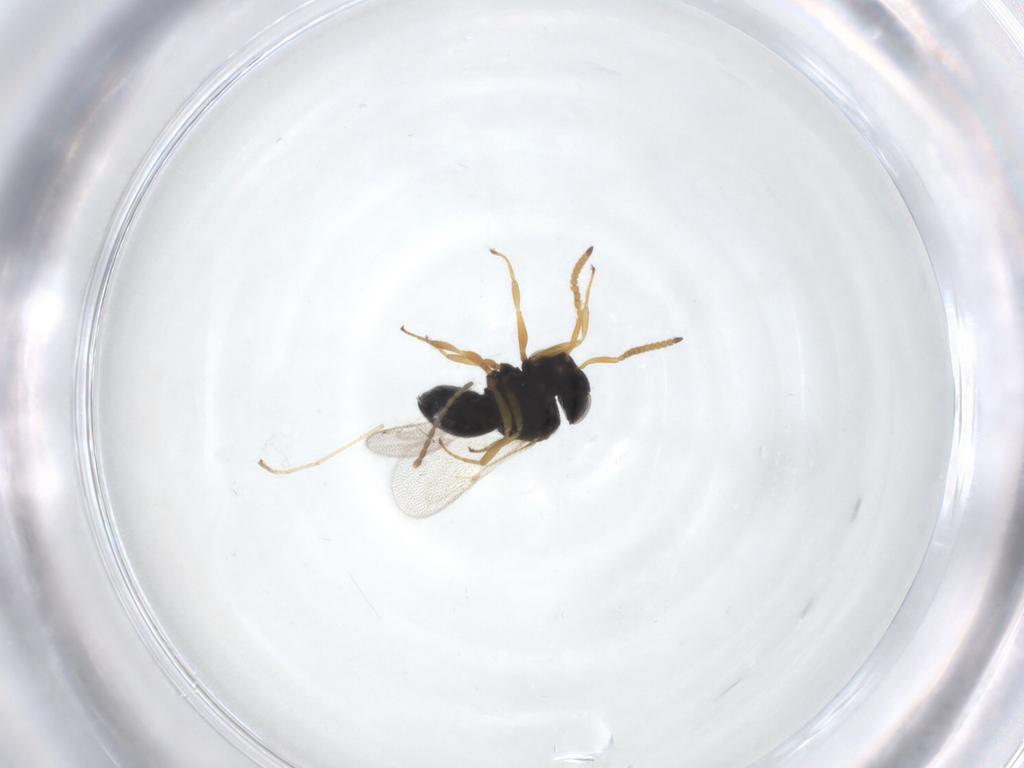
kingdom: Animalia
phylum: Arthropoda
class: Insecta
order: Hymenoptera
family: Scelionidae
